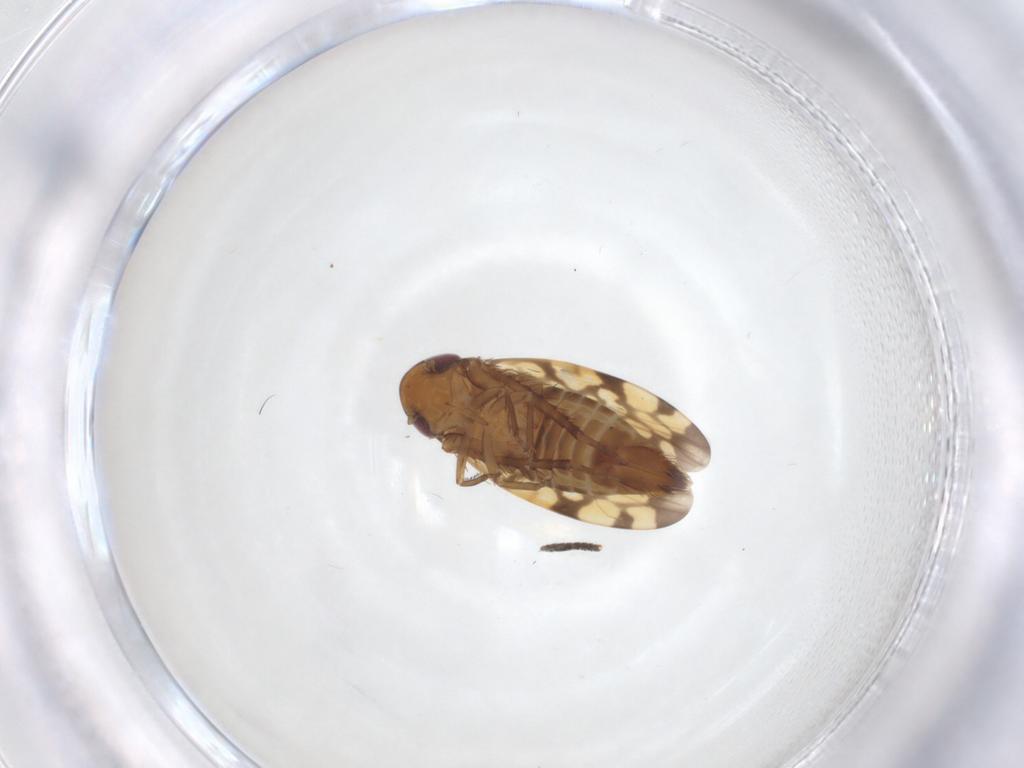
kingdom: Animalia
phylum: Arthropoda
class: Insecta
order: Hemiptera
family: Cicadellidae
